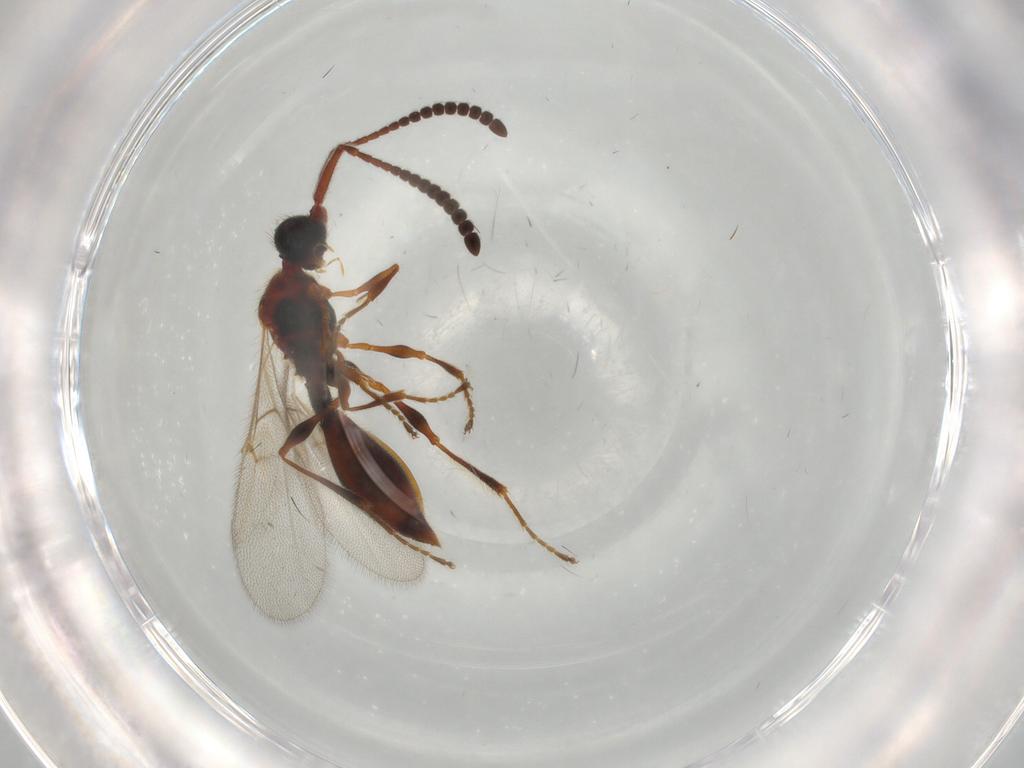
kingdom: Animalia
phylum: Arthropoda
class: Insecta
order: Hymenoptera
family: Diapriidae
